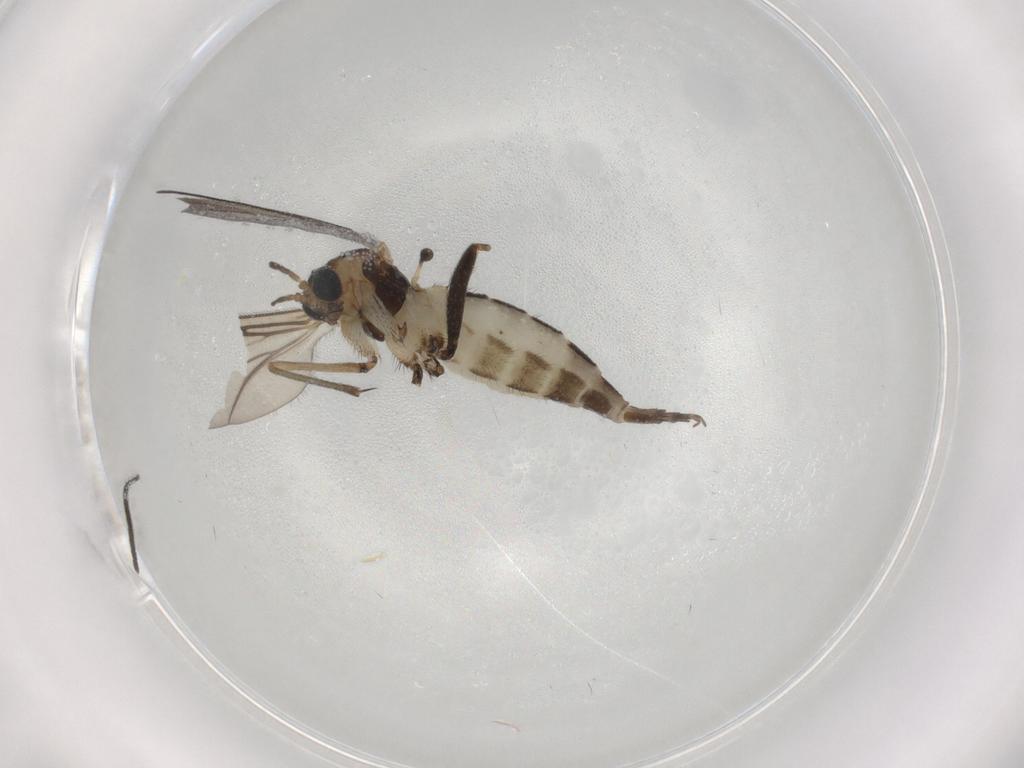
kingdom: Animalia
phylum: Arthropoda
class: Insecta
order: Diptera
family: Sciaridae
